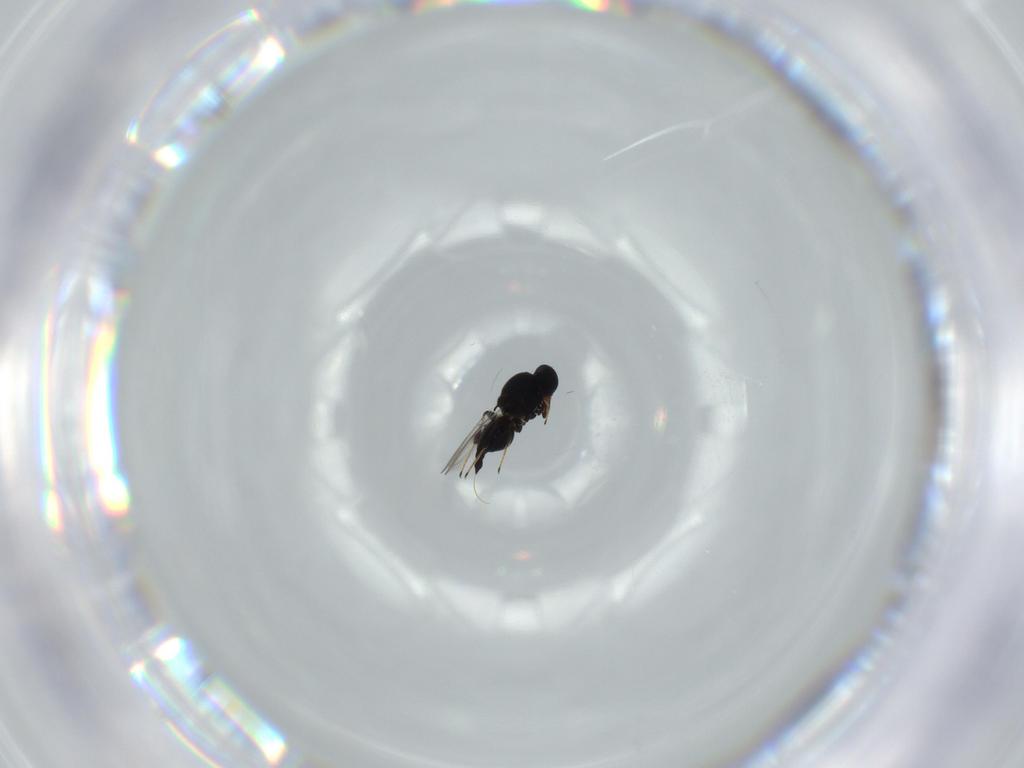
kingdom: Animalia
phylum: Arthropoda
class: Insecta
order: Hymenoptera
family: Platygastridae
